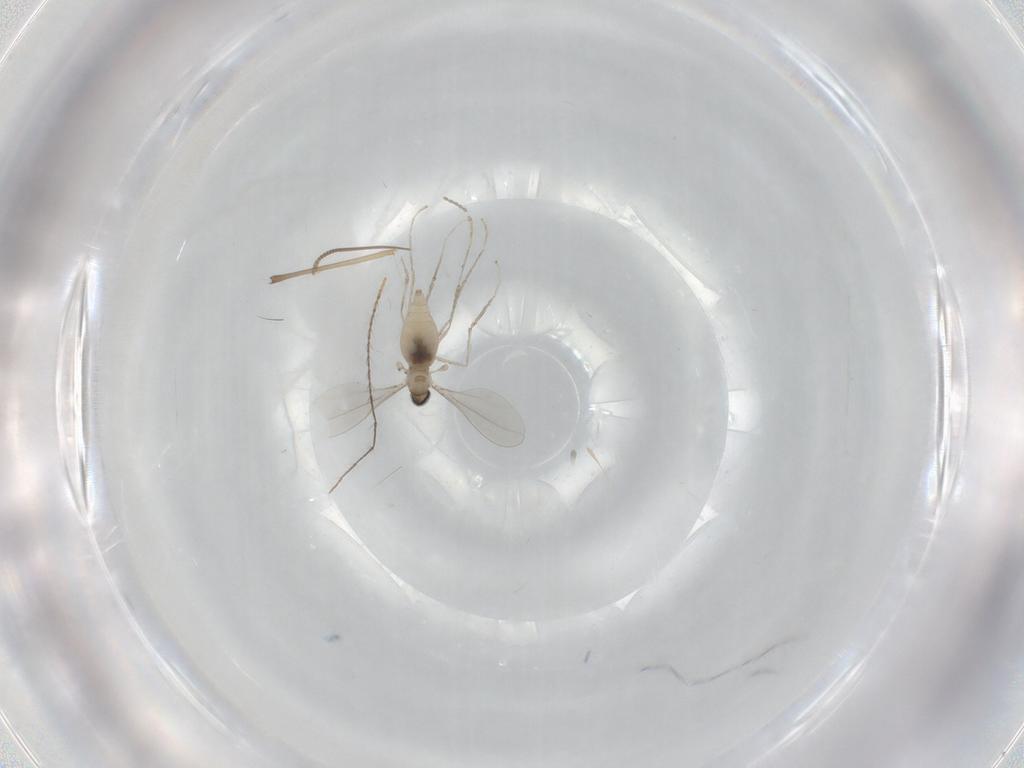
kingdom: Animalia
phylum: Arthropoda
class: Insecta
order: Diptera
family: Cecidomyiidae
